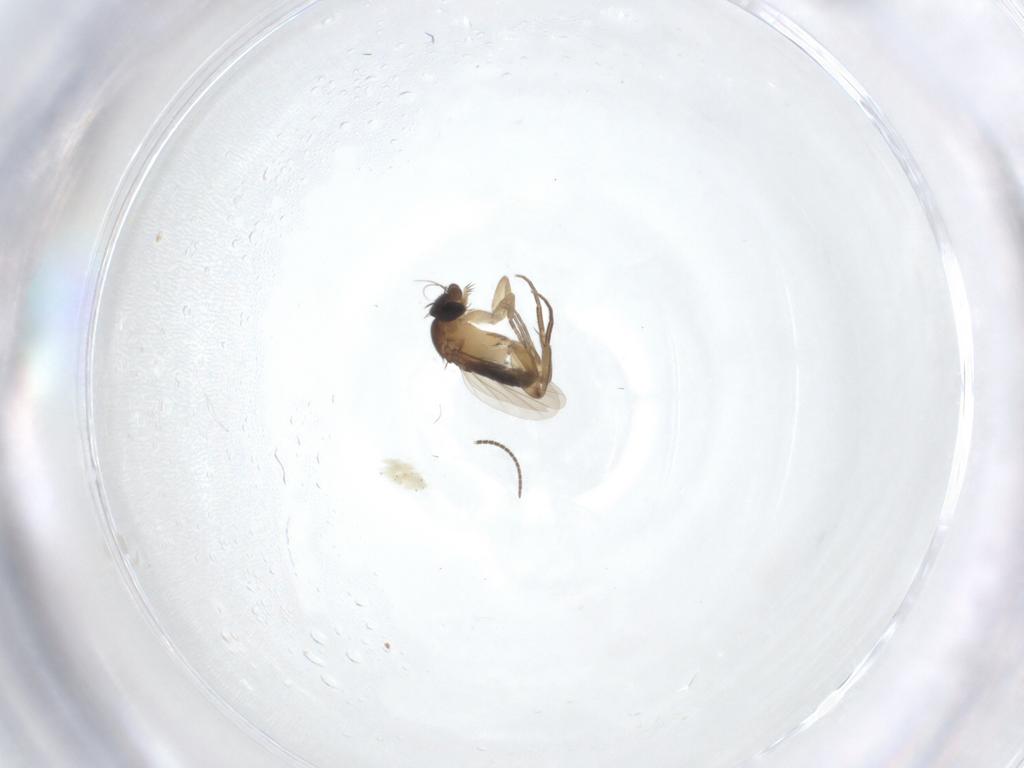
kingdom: Animalia
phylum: Arthropoda
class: Insecta
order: Diptera
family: Phoridae
